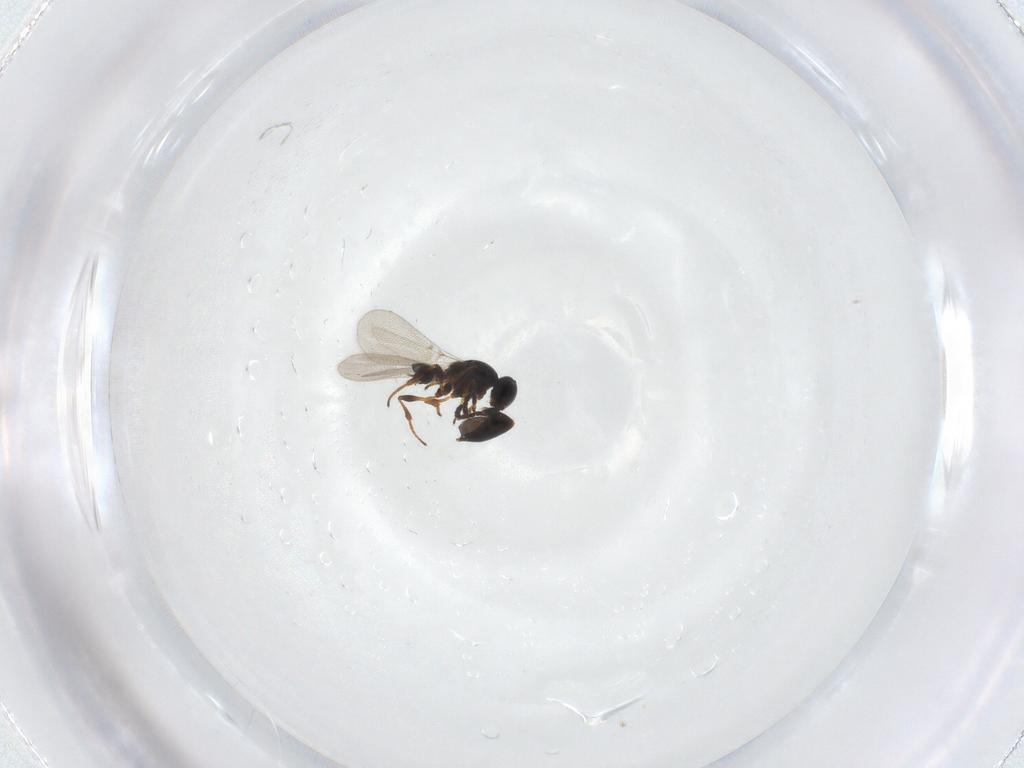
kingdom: Animalia
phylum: Arthropoda
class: Insecta
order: Hymenoptera
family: Platygastridae
